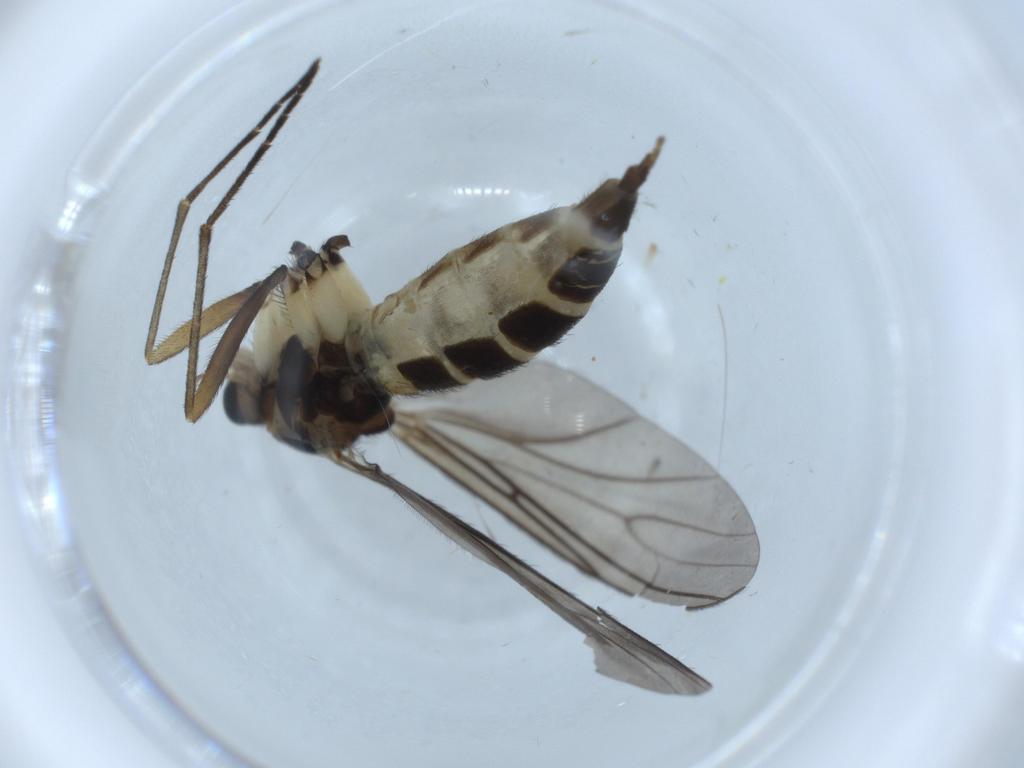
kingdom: Animalia
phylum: Arthropoda
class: Insecta
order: Diptera
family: Sciaridae
